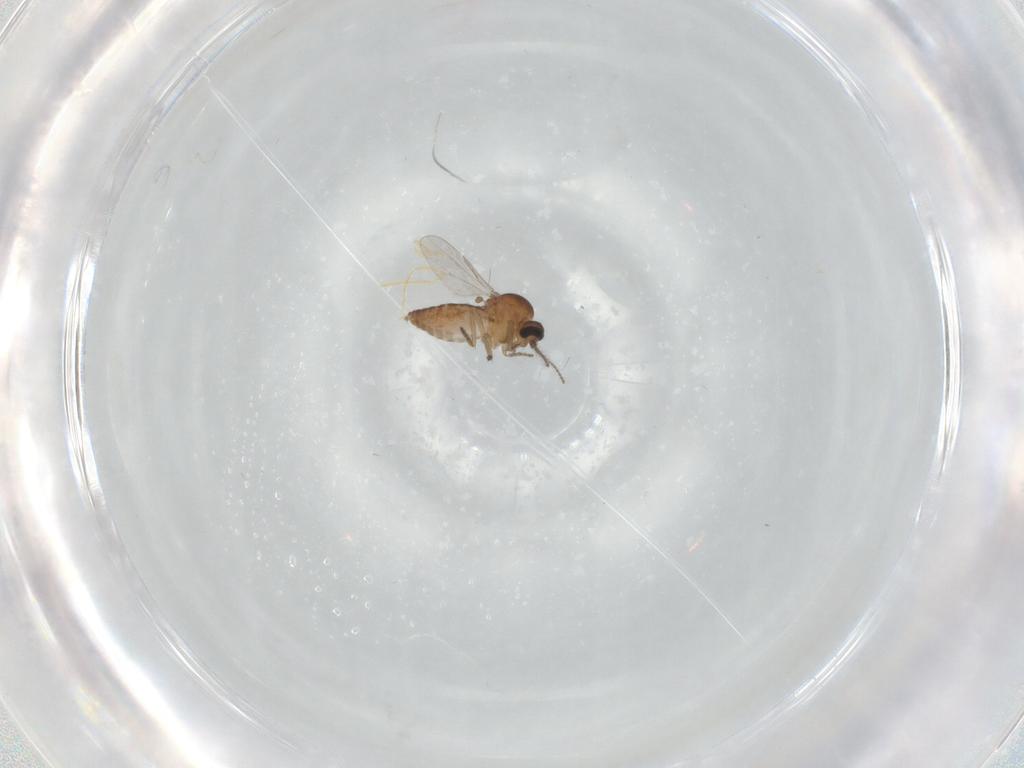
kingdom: Animalia
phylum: Arthropoda
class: Insecta
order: Diptera
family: Ceratopogonidae
